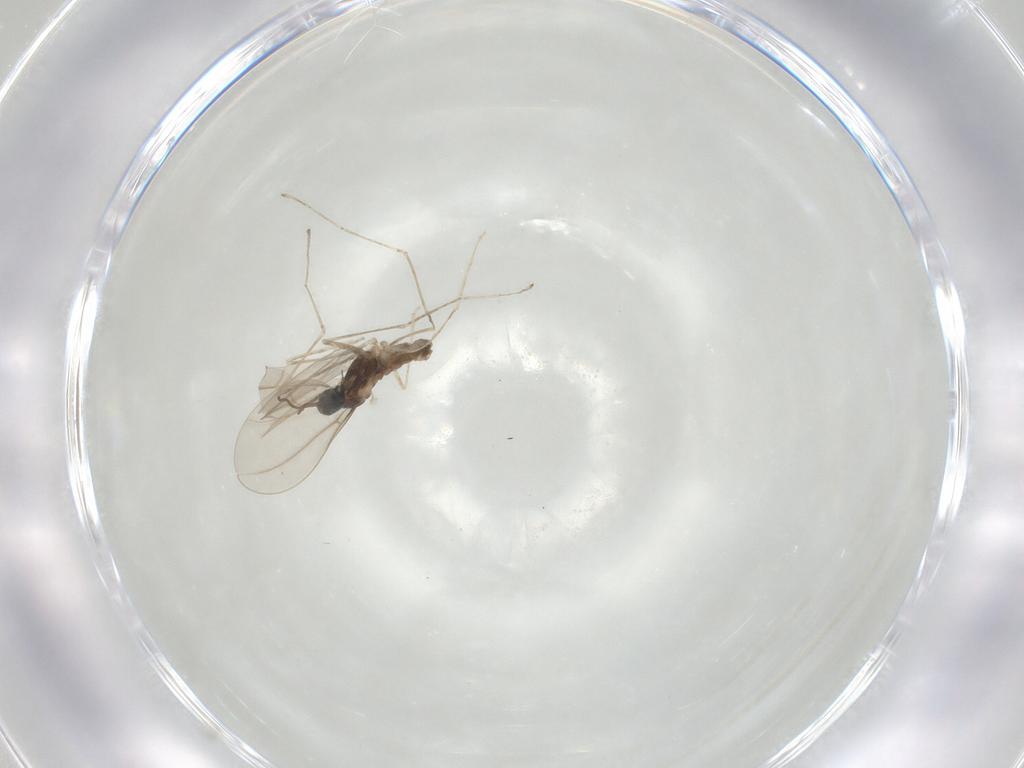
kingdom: Animalia
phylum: Arthropoda
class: Insecta
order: Diptera
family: Cecidomyiidae
